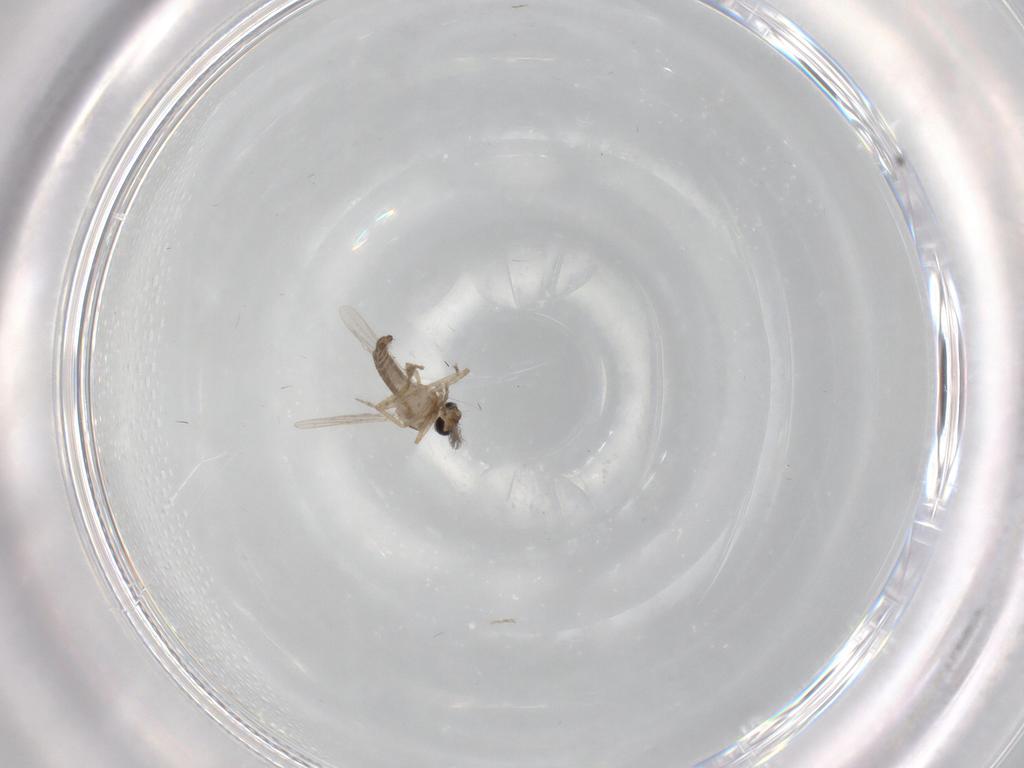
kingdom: Animalia
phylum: Arthropoda
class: Insecta
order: Diptera
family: Ceratopogonidae
